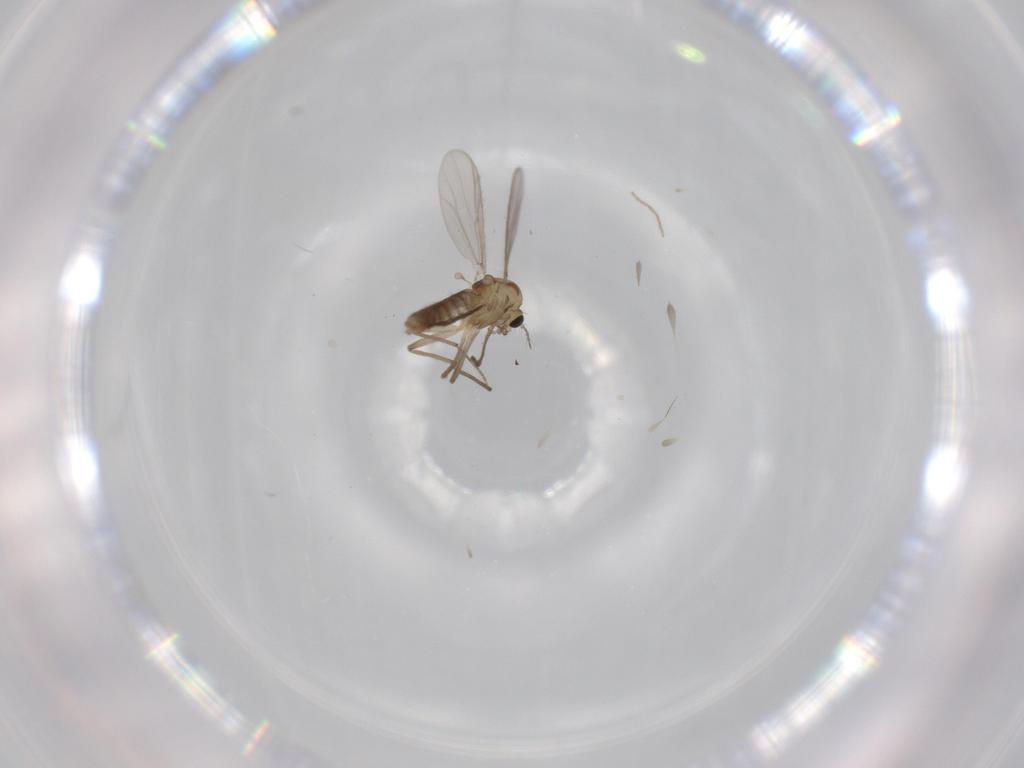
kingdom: Animalia
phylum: Arthropoda
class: Insecta
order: Diptera
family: Chironomidae
